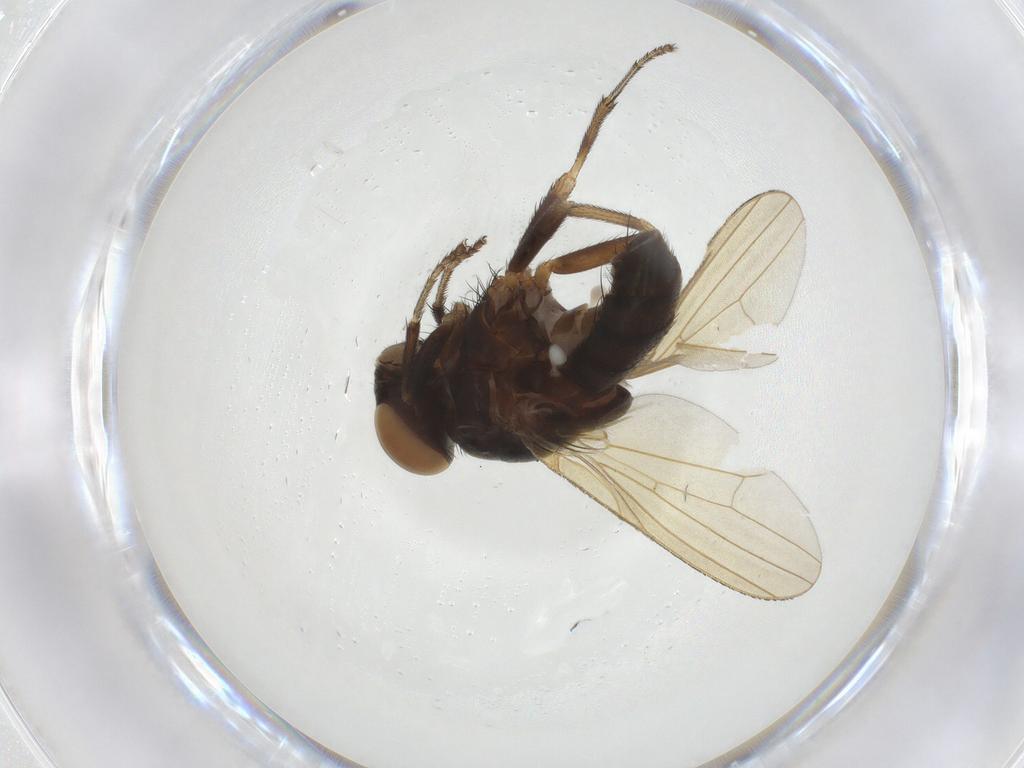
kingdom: Animalia
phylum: Arthropoda
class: Insecta
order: Diptera
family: Lauxaniidae
